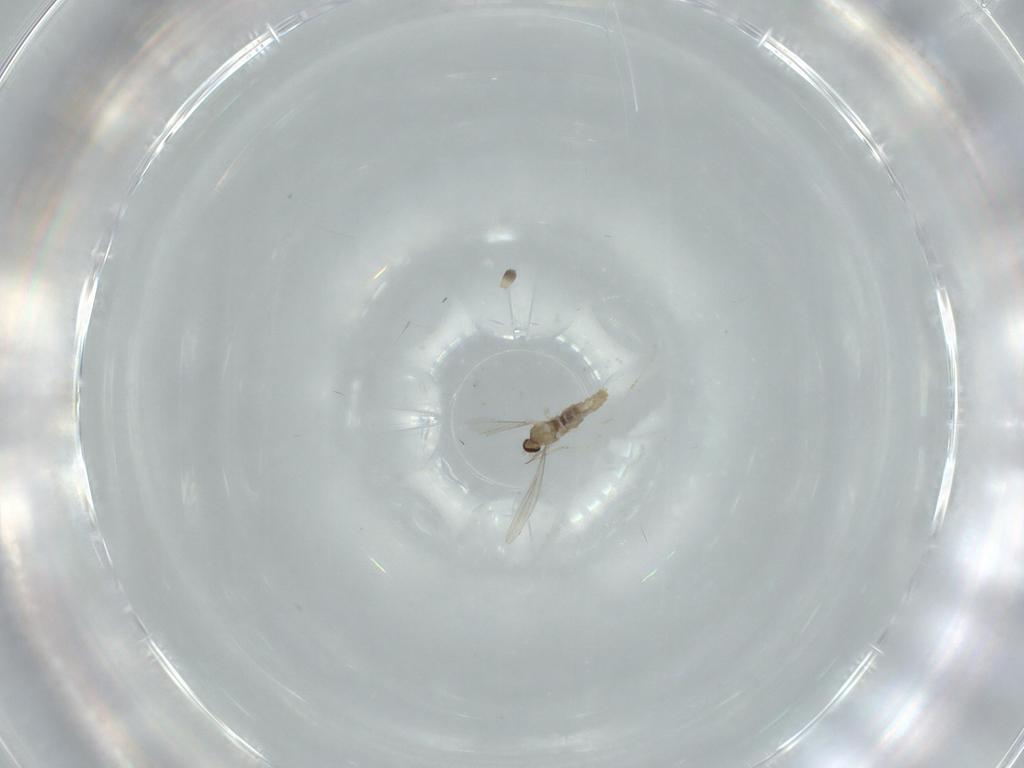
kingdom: Animalia
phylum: Arthropoda
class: Insecta
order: Diptera
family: Cecidomyiidae
